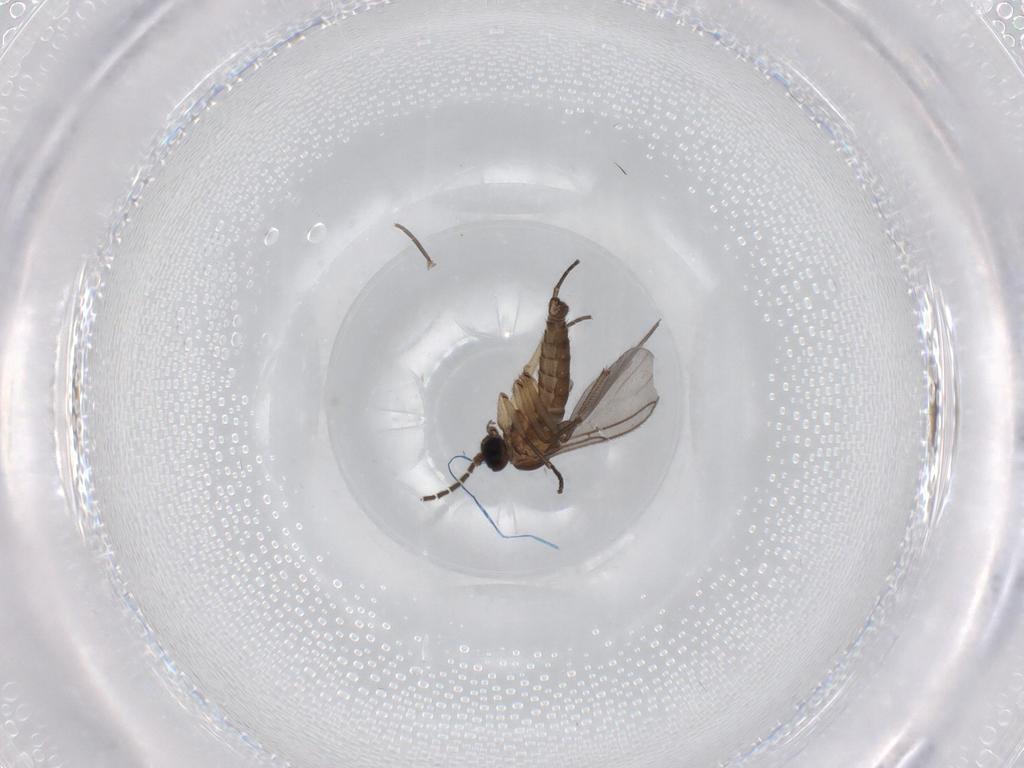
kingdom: Animalia
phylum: Arthropoda
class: Insecta
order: Diptera
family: Sciaridae
